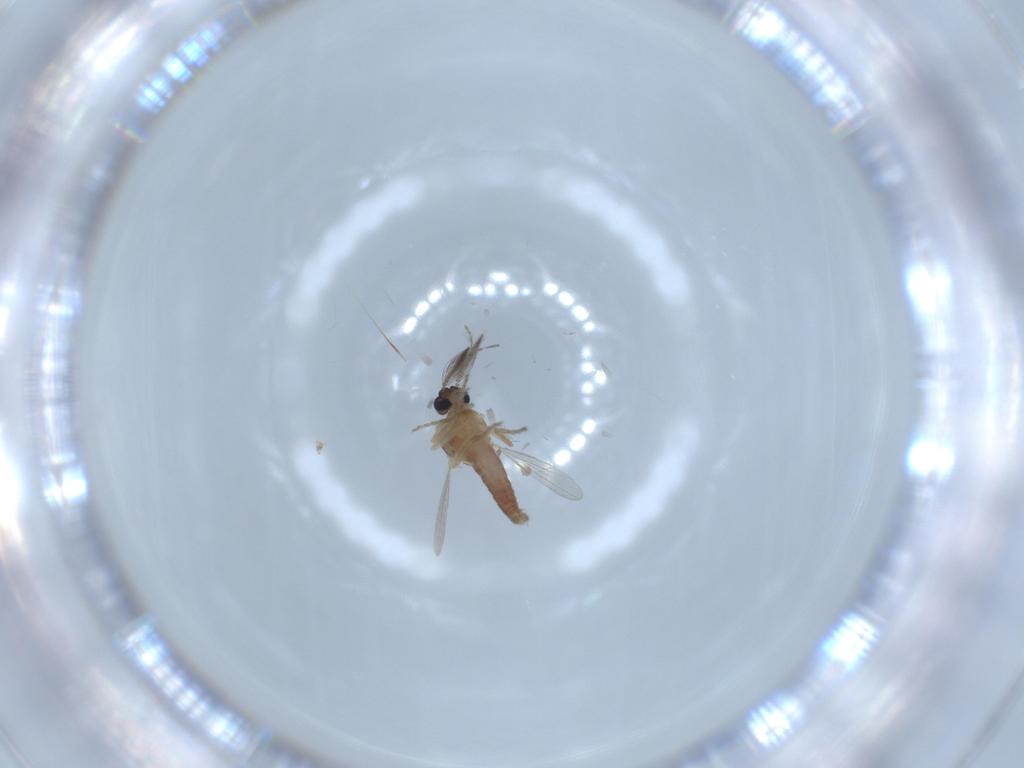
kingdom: Animalia
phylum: Arthropoda
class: Insecta
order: Diptera
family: Ceratopogonidae
